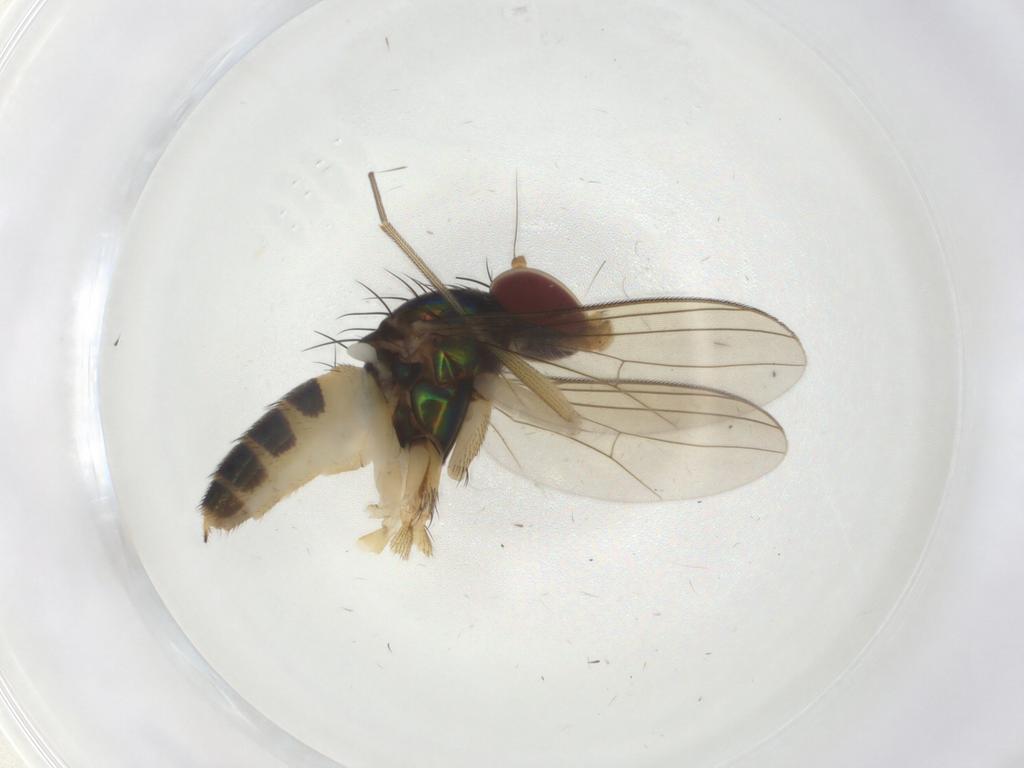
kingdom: Animalia
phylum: Arthropoda
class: Insecta
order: Diptera
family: Dolichopodidae
